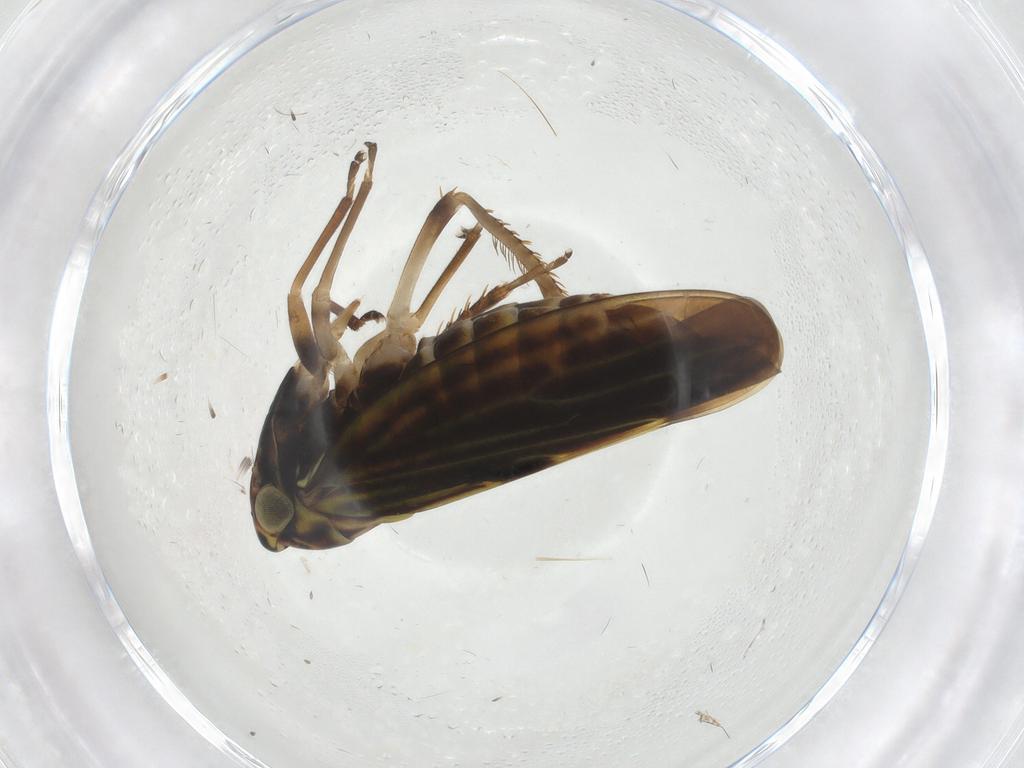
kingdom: Animalia
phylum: Arthropoda
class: Insecta
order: Hemiptera
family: Cicadellidae
